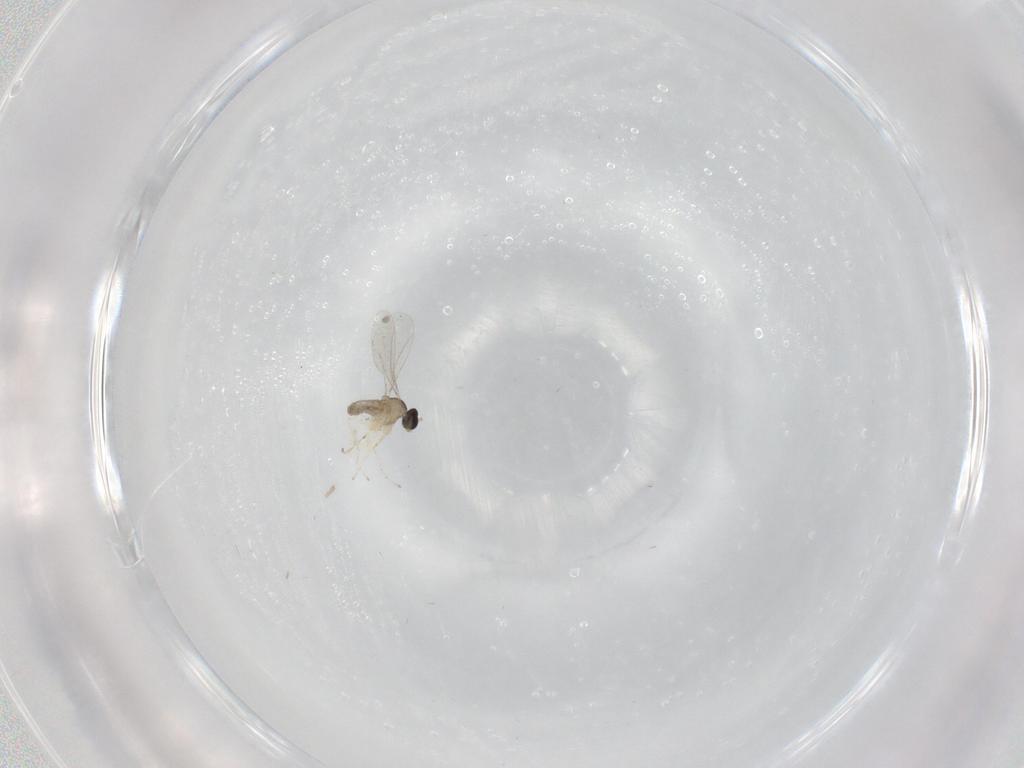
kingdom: Animalia
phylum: Arthropoda
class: Insecta
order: Diptera
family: Cecidomyiidae
